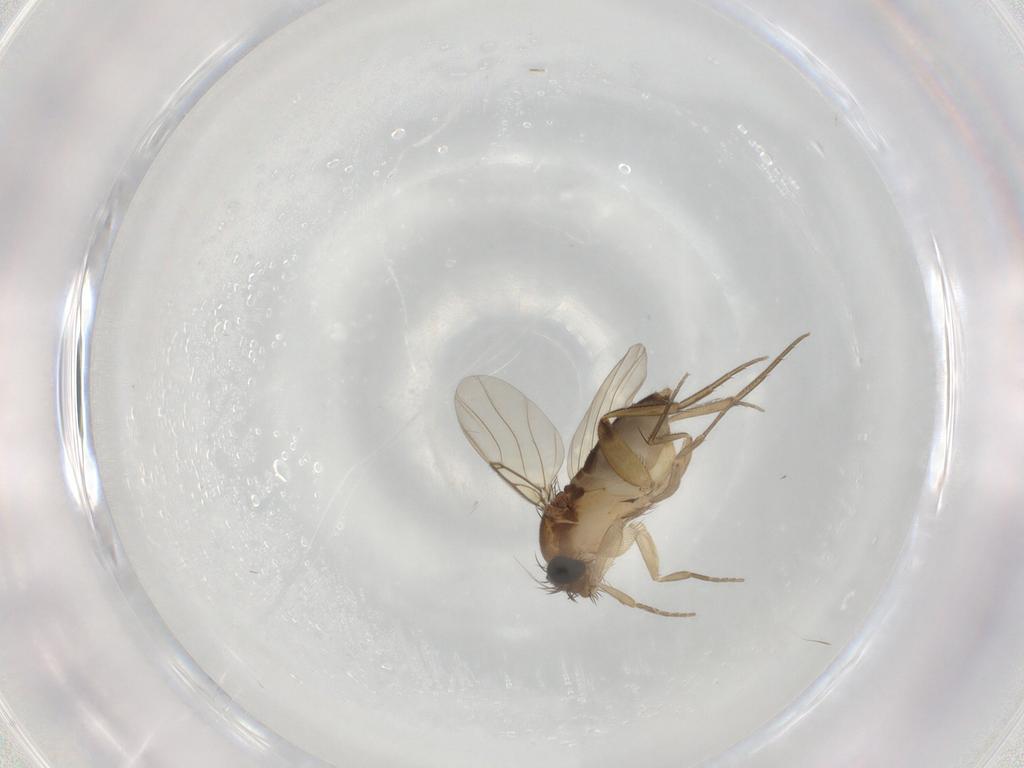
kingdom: Animalia
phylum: Arthropoda
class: Insecta
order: Diptera
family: Phoridae
